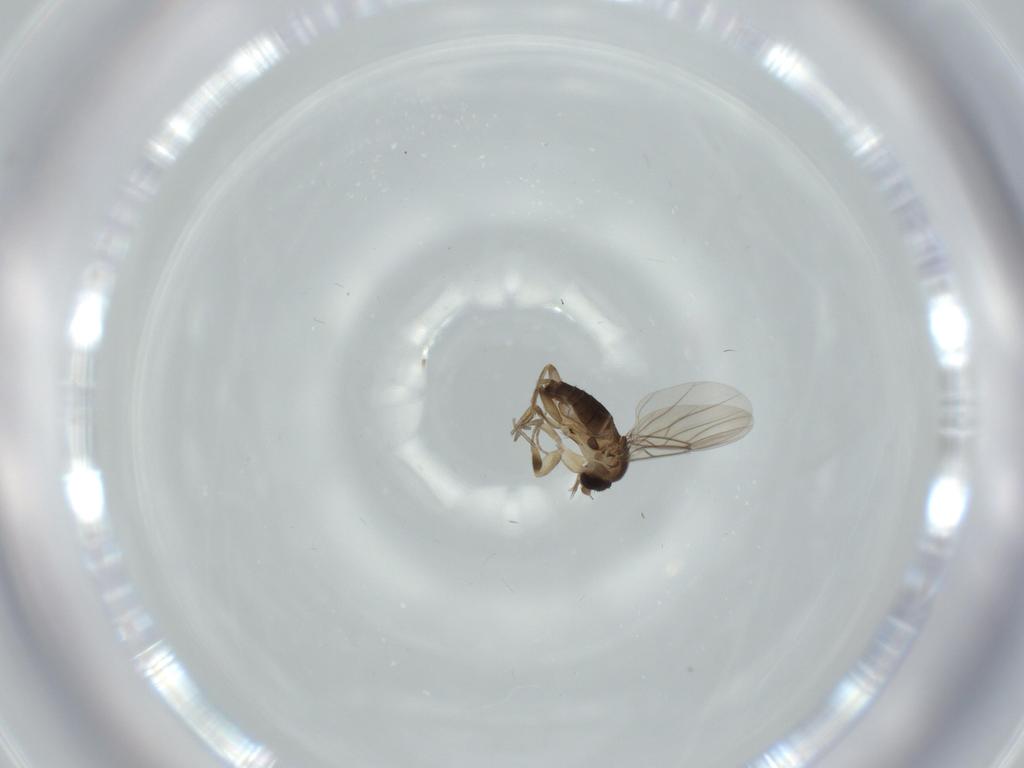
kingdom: Animalia
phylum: Arthropoda
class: Insecta
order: Diptera
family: Phoridae
